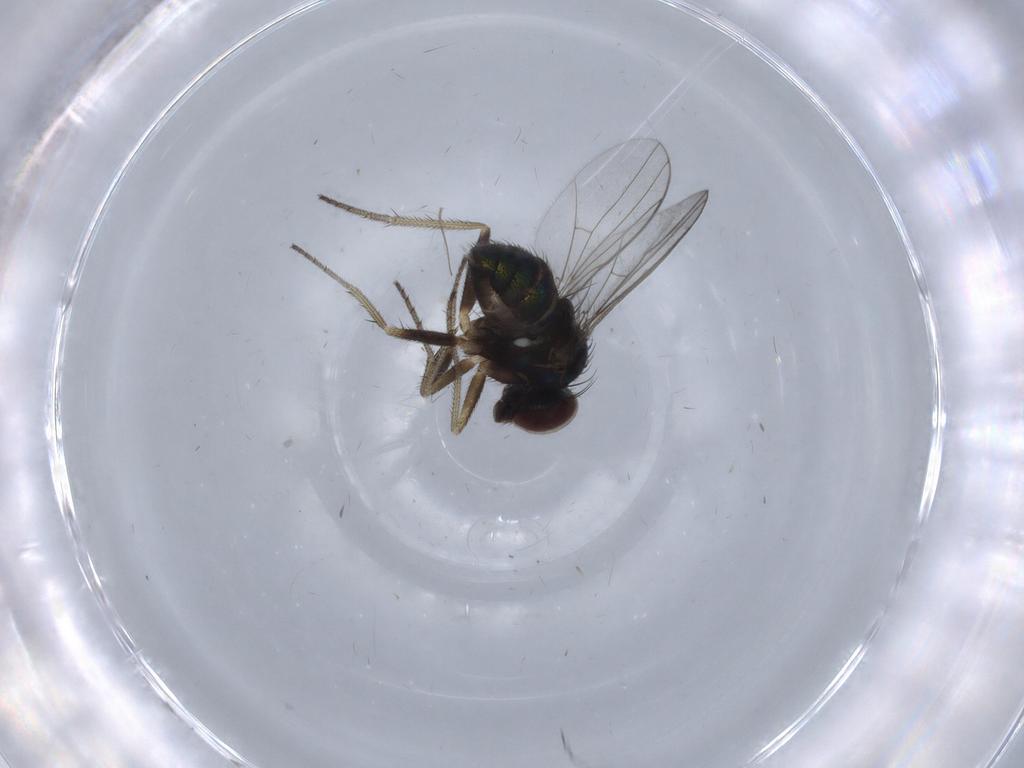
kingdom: Animalia
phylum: Arthropoda
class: Insecta
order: Diptera
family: Dolichopodidae
